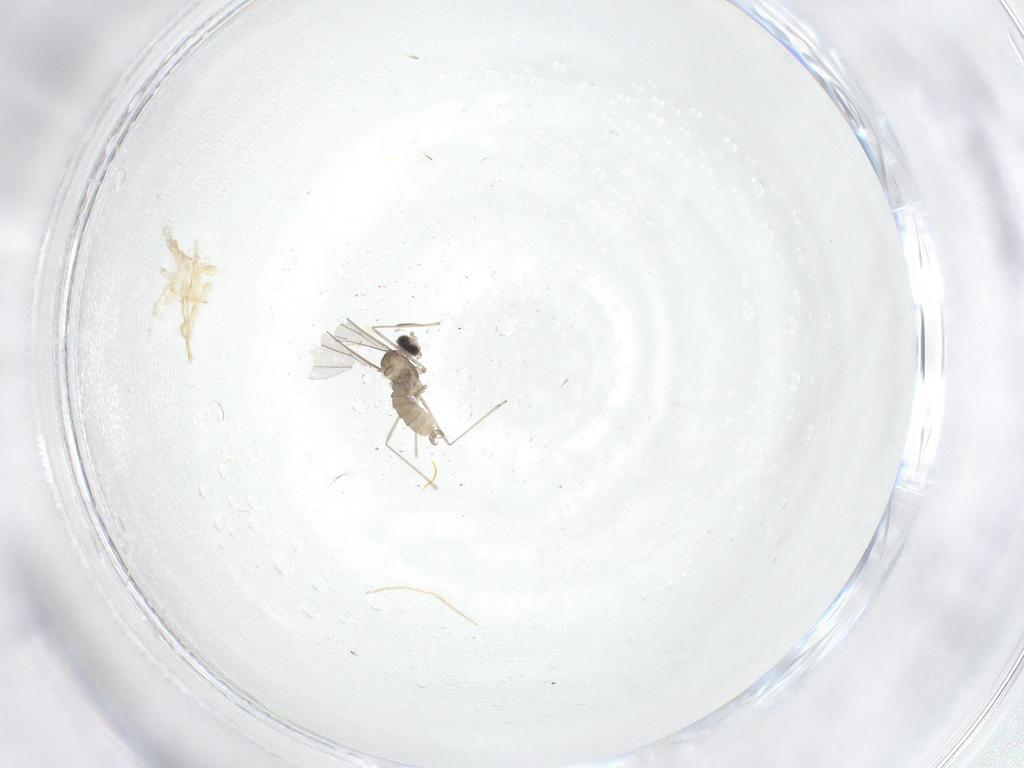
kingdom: Animalia
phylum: Arthropoda
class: Insecta
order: Diptera
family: Cecidomyiidae
